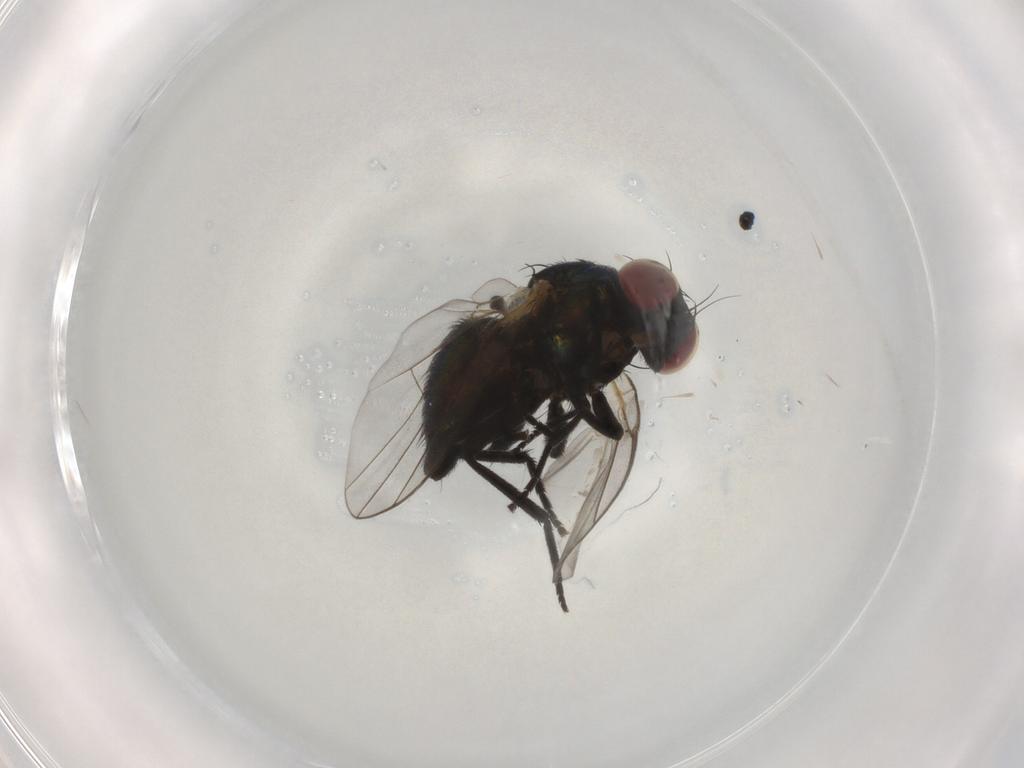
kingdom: Animalia
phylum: Arthropoda
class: Insecta
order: Diptera
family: Agromyzidae
